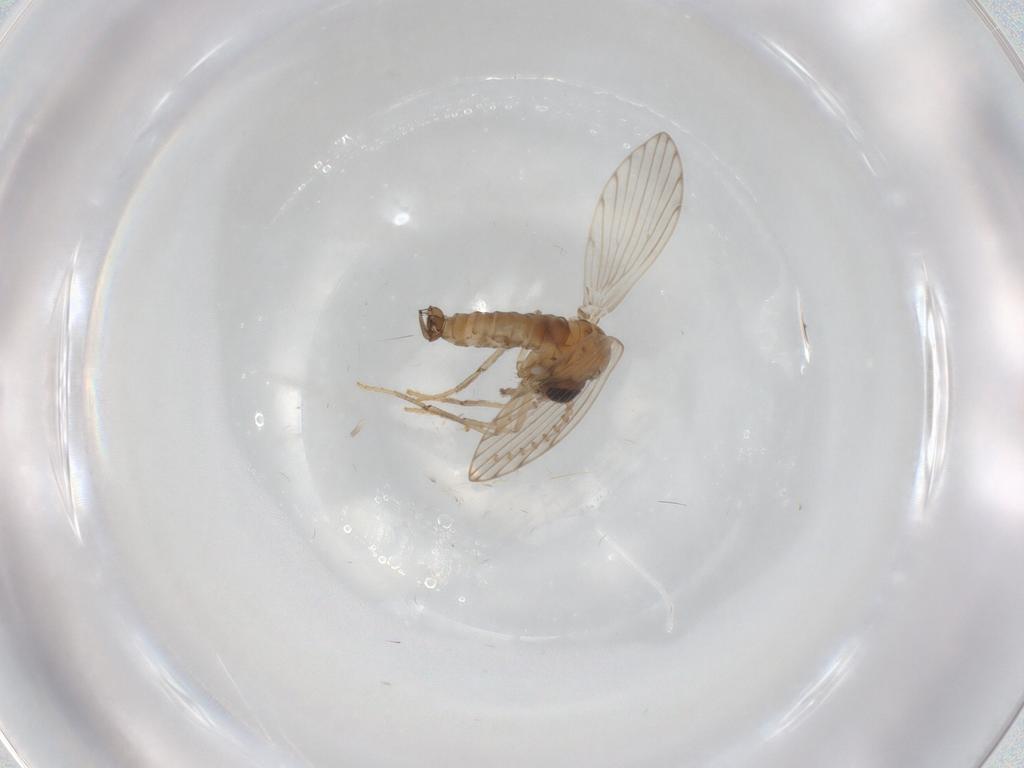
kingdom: Animalia
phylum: Arthropoda
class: Insecta
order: Diptera
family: Psychodidae
